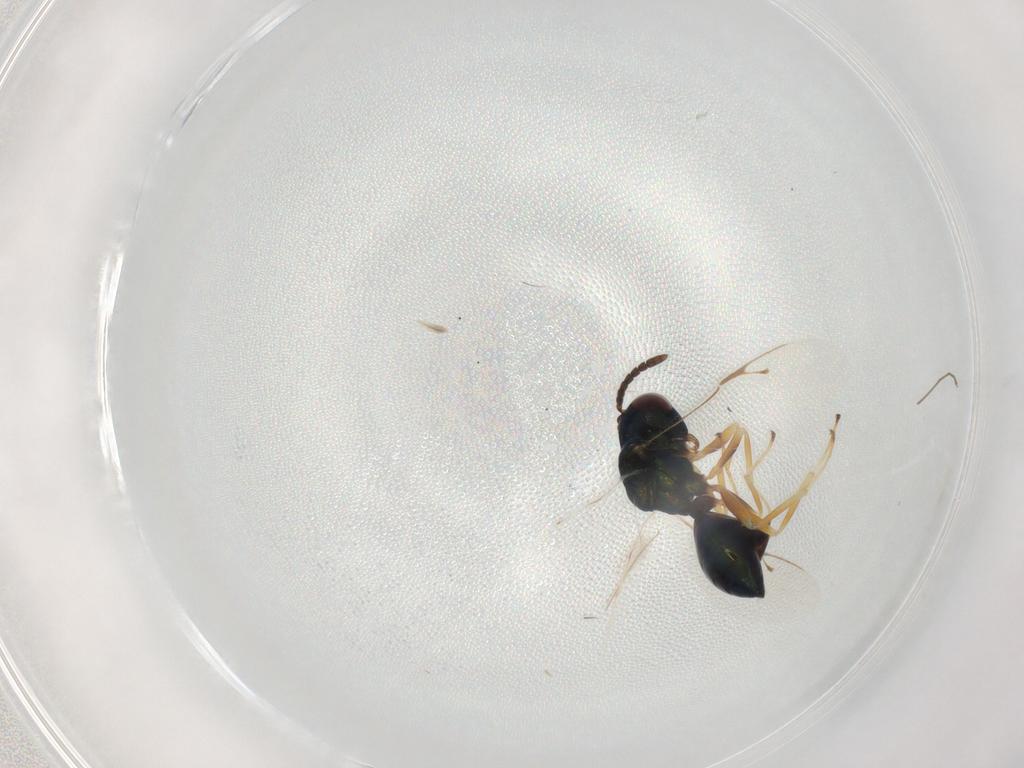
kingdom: Animalia
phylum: Arthropoda
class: Insecta
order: Hymenoptera
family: Pteromalidae
